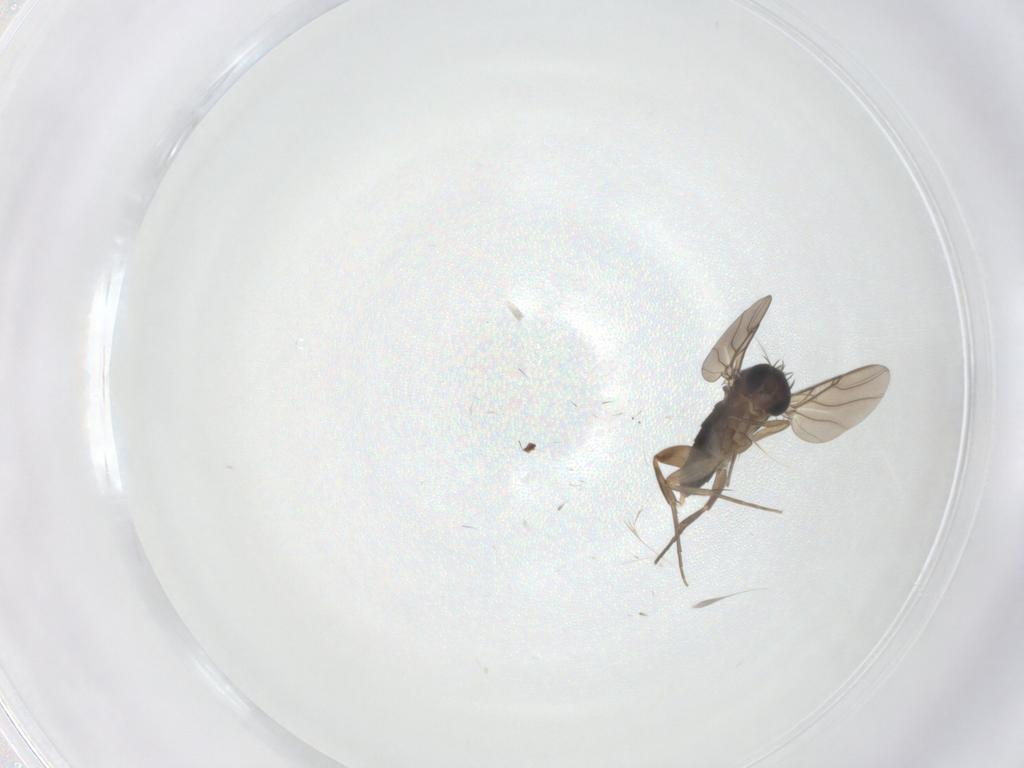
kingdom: Animalia
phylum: Arthropoda
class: Insecta
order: Diptera
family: Phoridae
